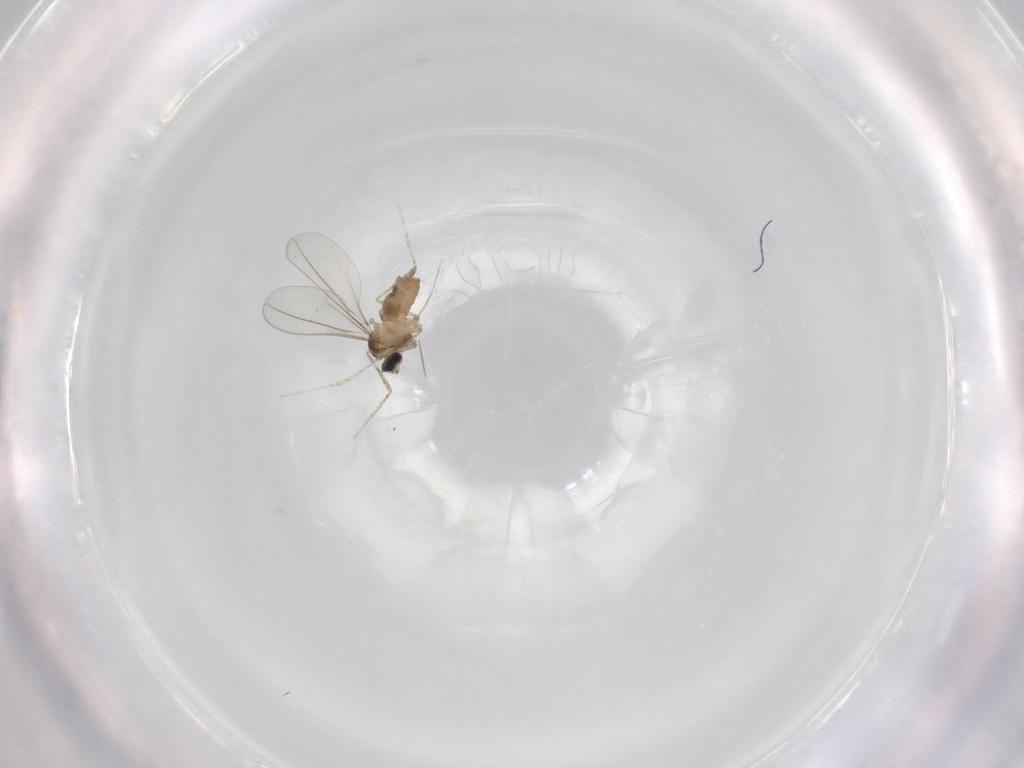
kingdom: Animalia
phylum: Arthropoda
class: Insecta
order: Diptera
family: Cecidomyiidae
